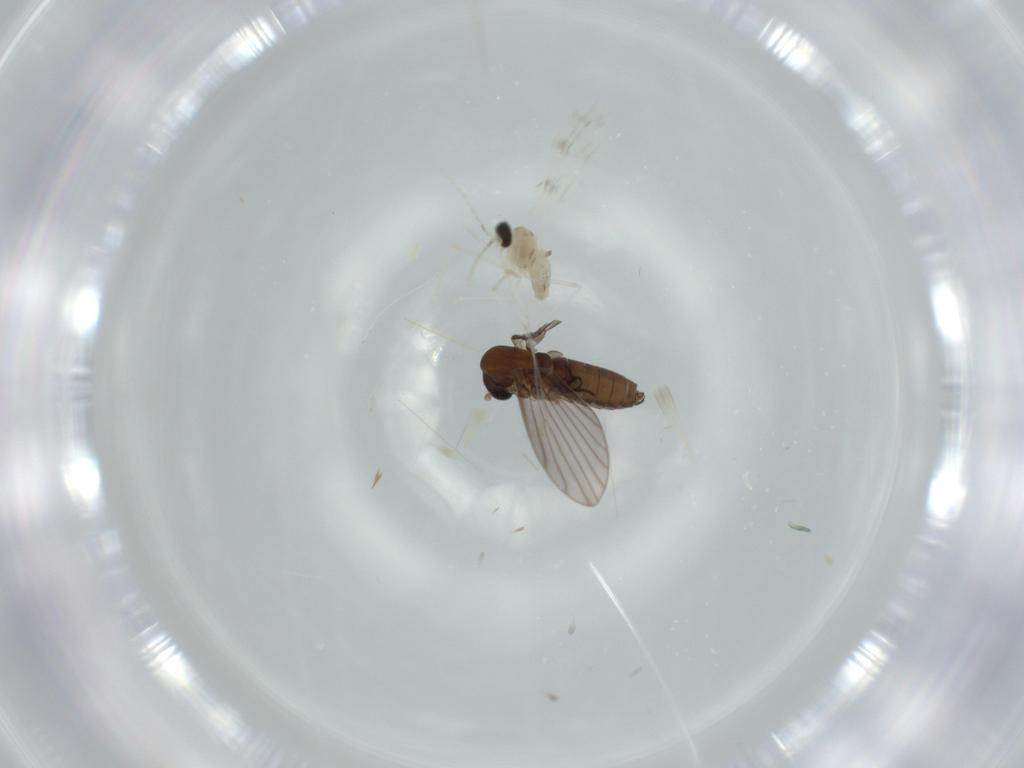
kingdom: Animalia
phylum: Arthropoda
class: Insecta
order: Diptera
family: Psychodidae
